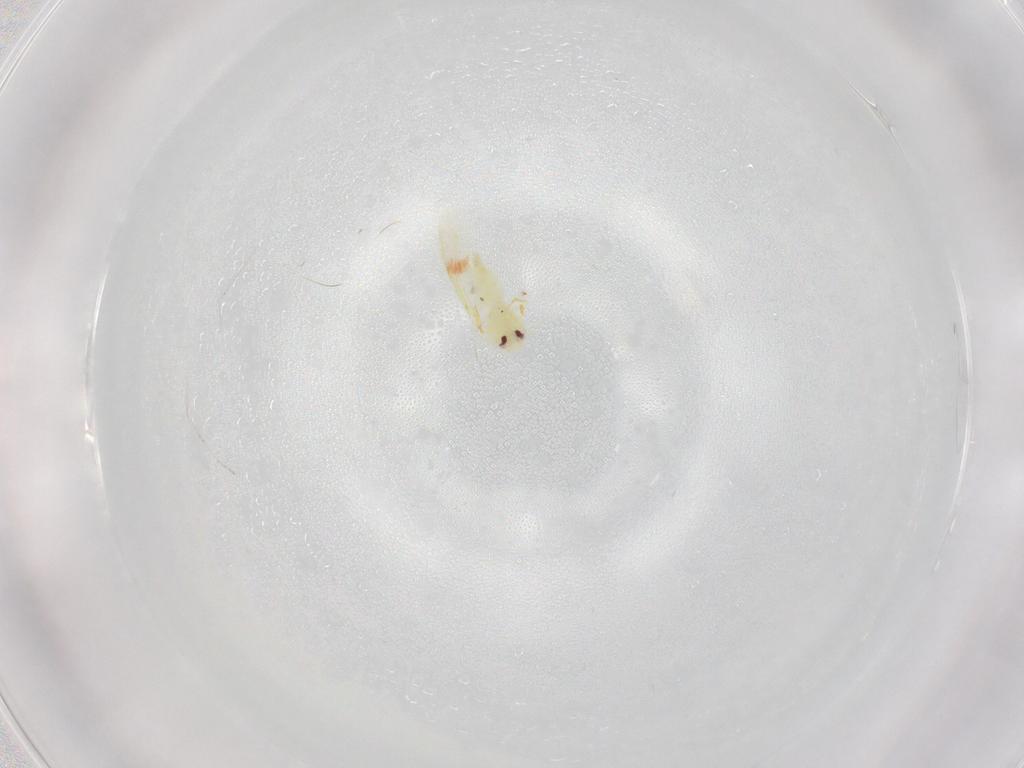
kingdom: Animalia
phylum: Arthropoda
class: Insecta
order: Hemiptera
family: Aleyrodidae
